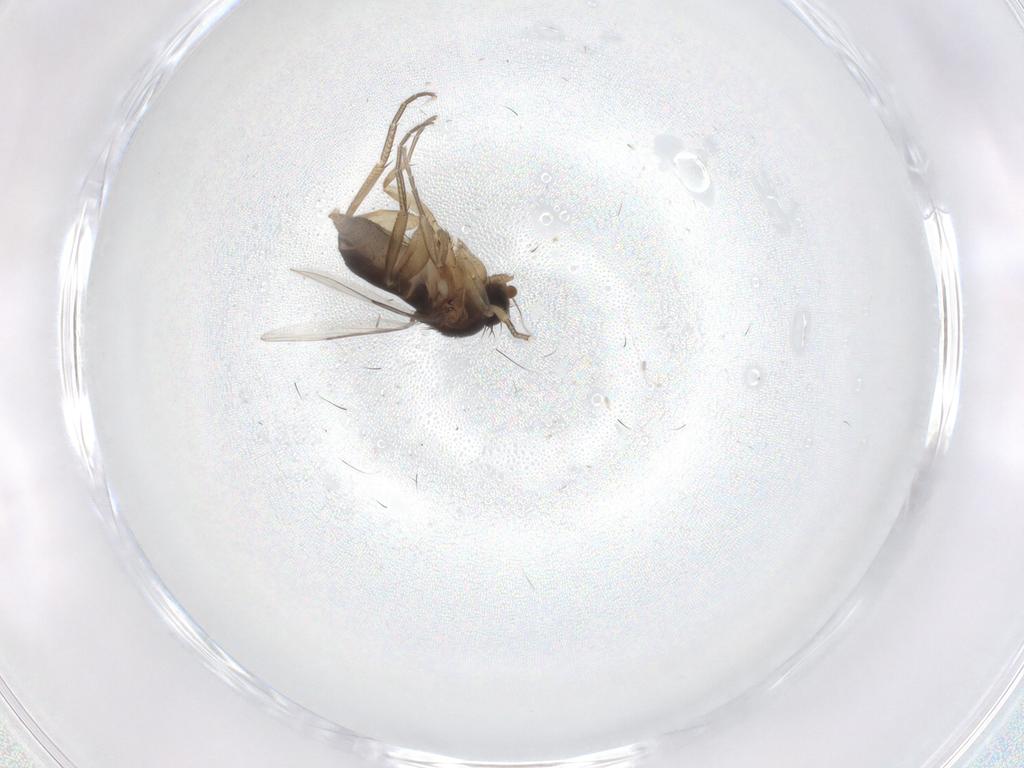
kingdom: Animalia
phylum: Arthropoda
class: Insecta
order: Diptera
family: Phoridae
